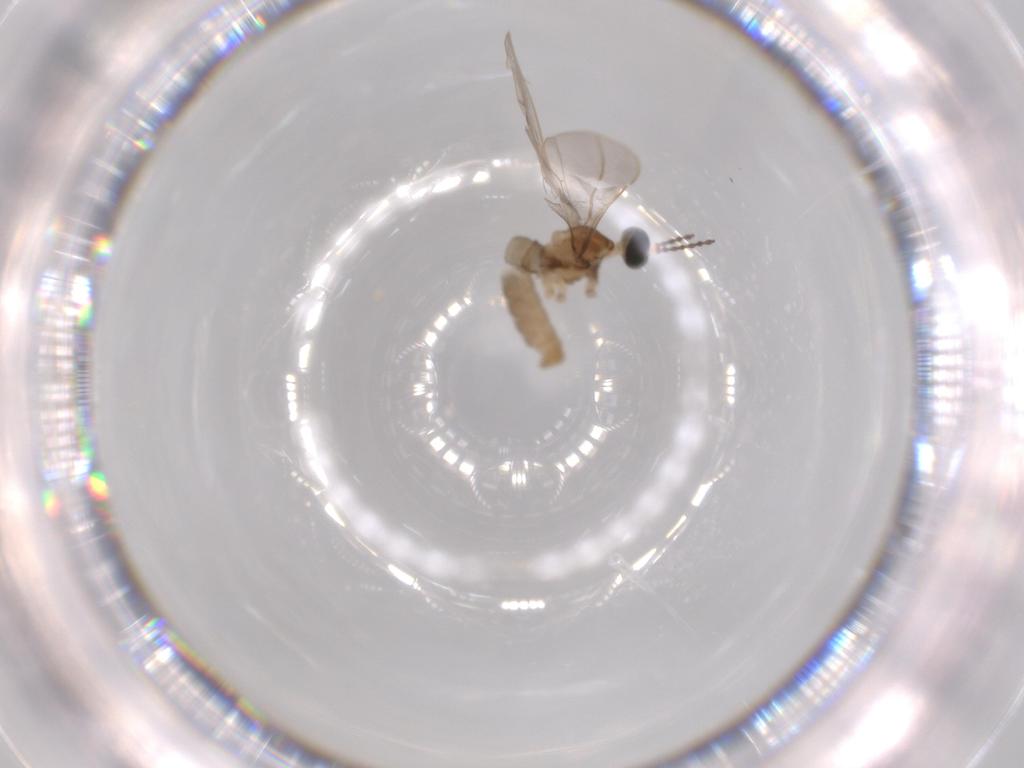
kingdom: Animalia
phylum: Arthropoda
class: Insecta
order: Diptera
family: Cecidomyiidae
